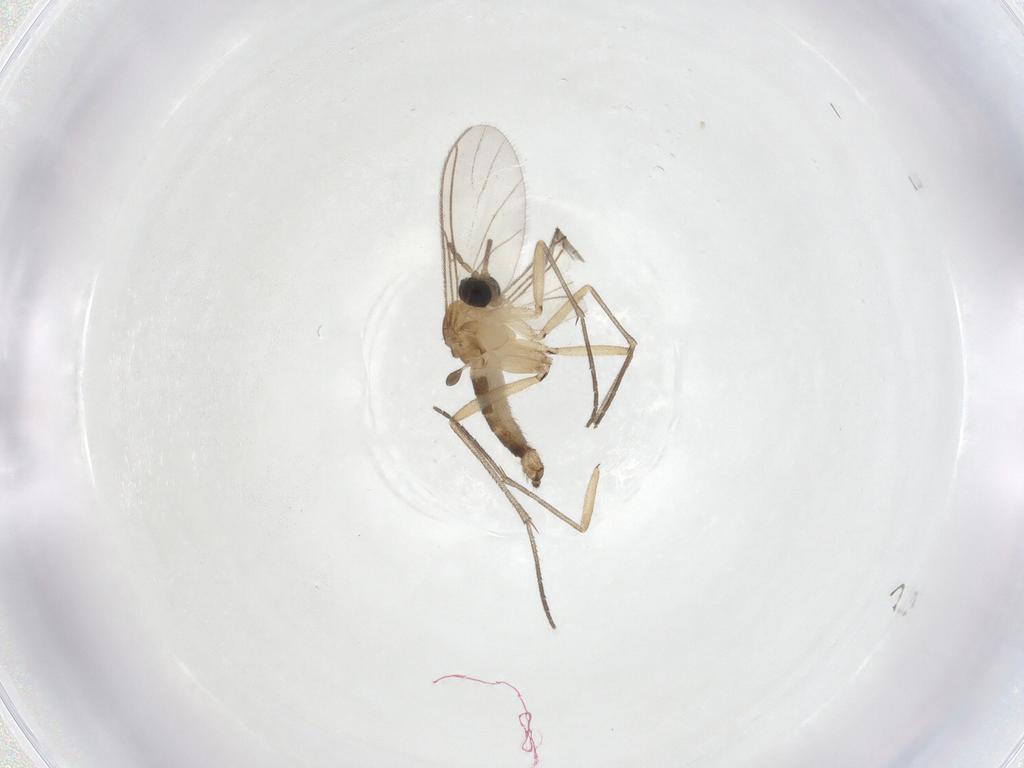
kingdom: Animalia
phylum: Arthropoda
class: Insecta
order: Diptera
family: Sciaridae
